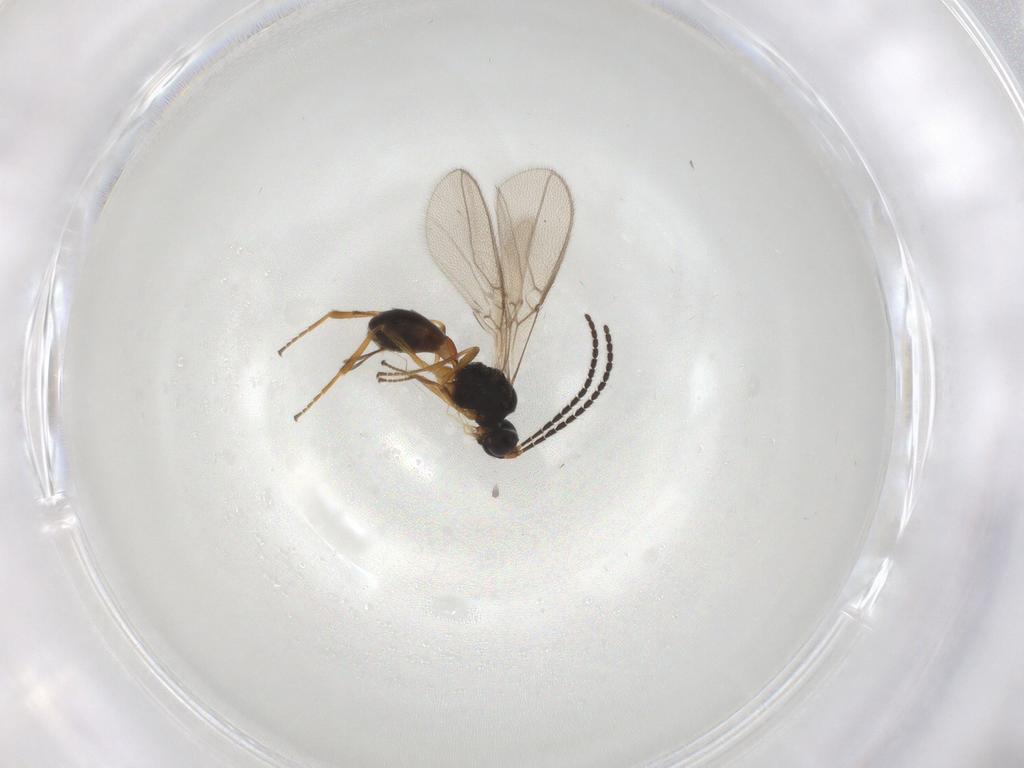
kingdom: Animalia
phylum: Arthropoda
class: Insecta
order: Hymenoptera
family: Braconidae
